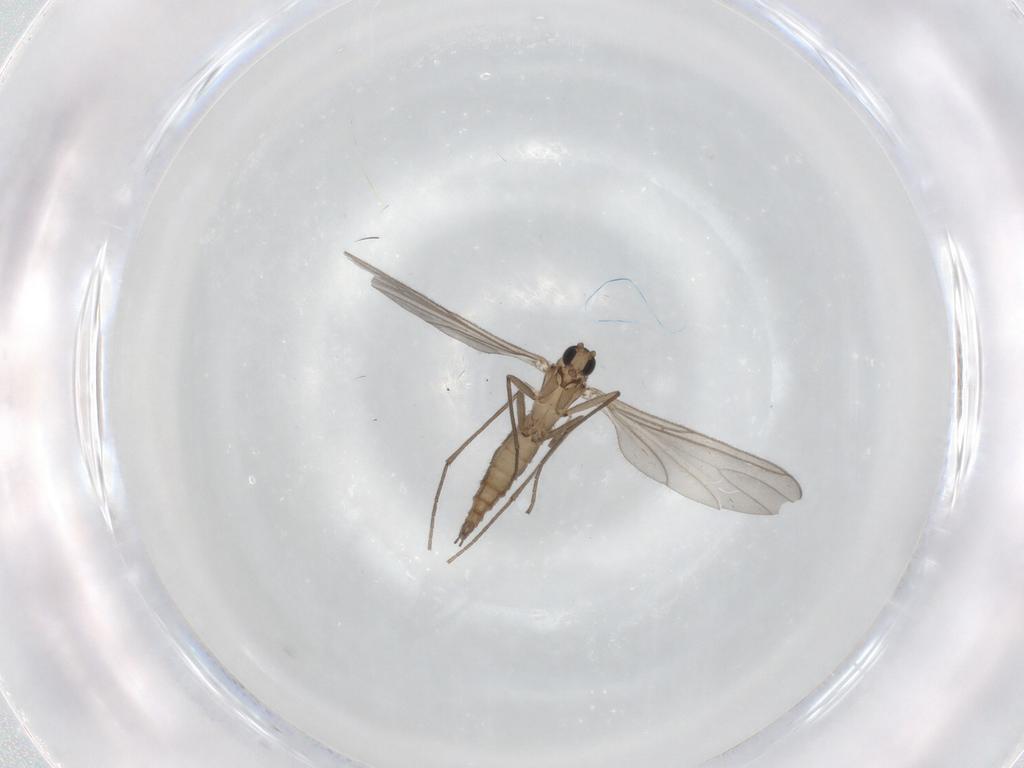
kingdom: Animalia
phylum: Arthropoda
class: Insecta
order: Diptera
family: Sciaridae
